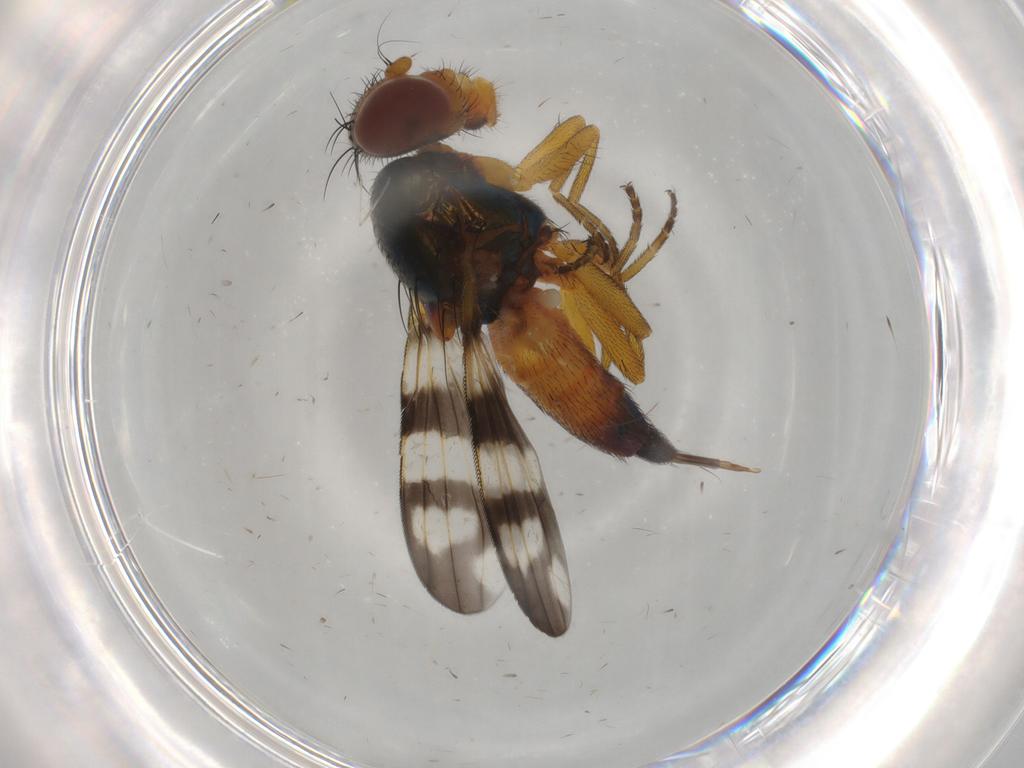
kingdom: Animalia
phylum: Arthropoda
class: Insecta
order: Diptera
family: Ulidiidae
